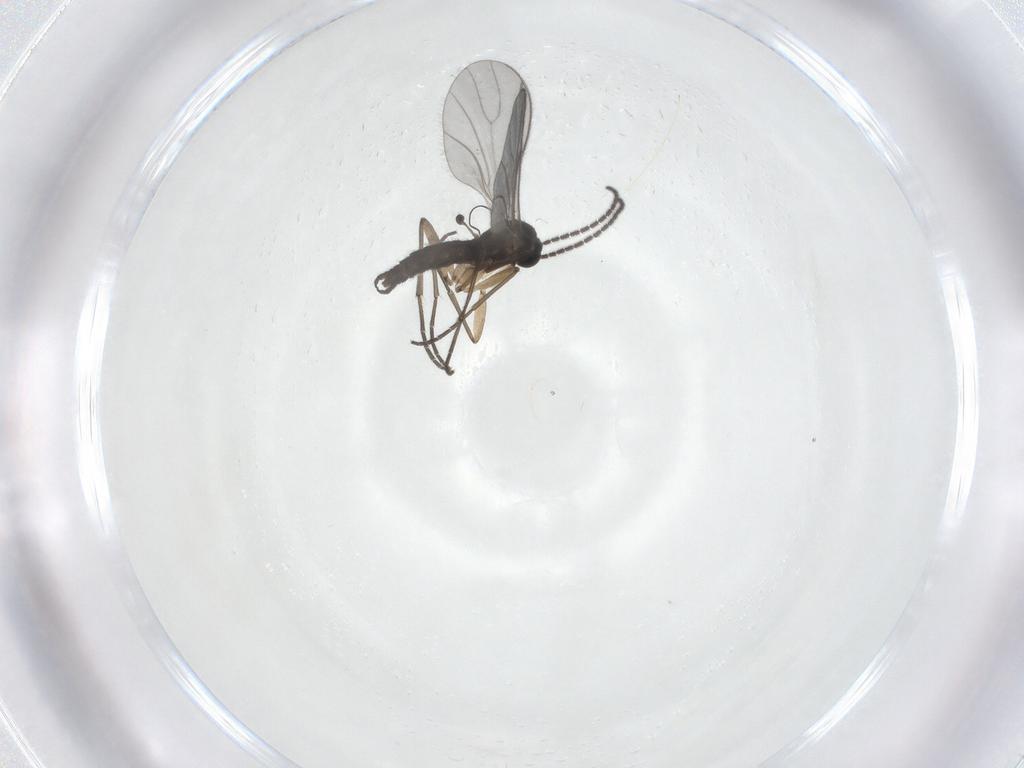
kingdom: Animalia
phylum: Arthropoda
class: Insecta
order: Diptera
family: Sciaridae
